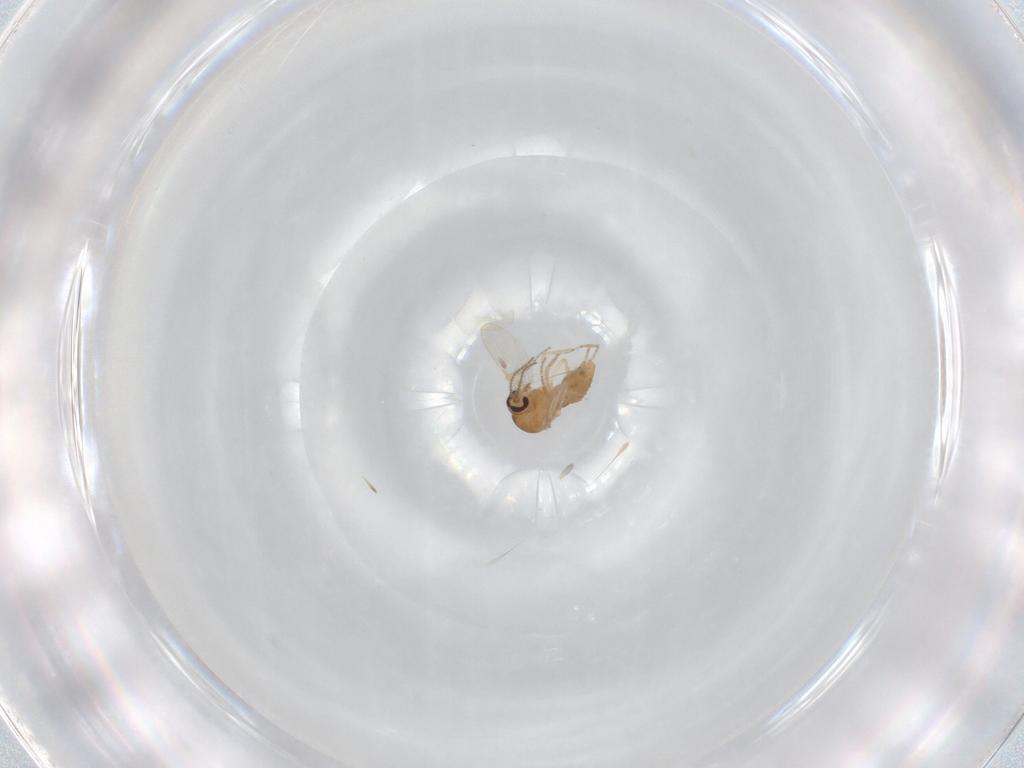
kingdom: Animalia
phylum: Arthropoda
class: Insecta
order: Diptera
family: Ceratopogonidae
